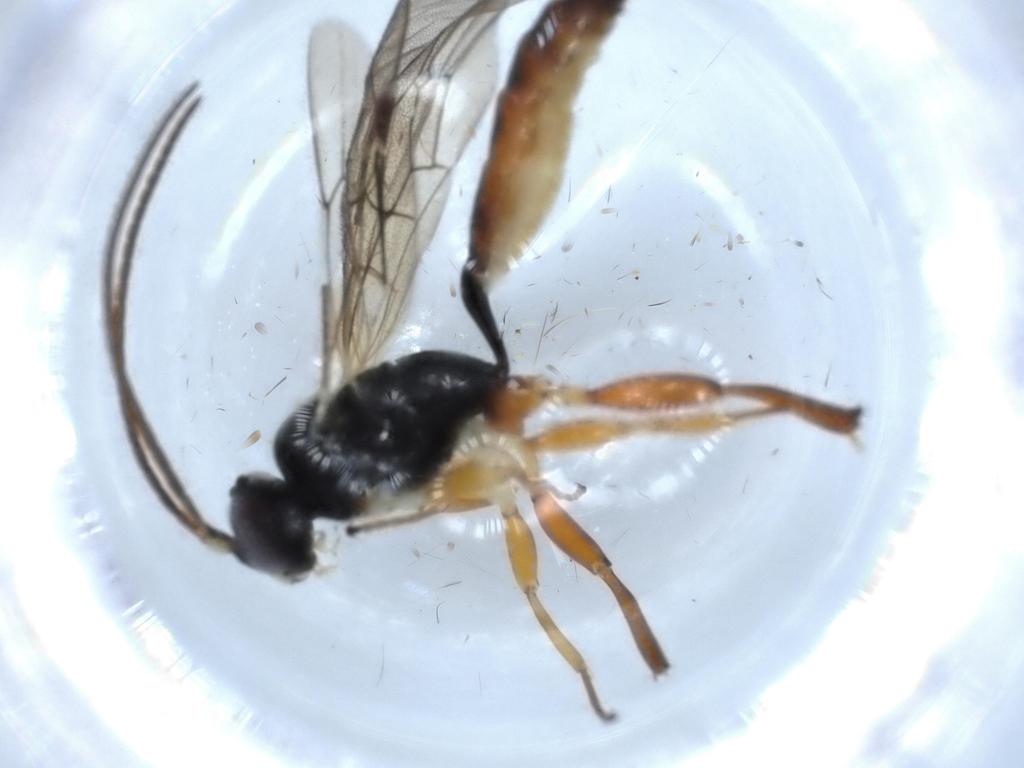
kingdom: Animalia
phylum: Arthropoda
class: Insecta
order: Hymenoptera
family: Ichneumonidae
